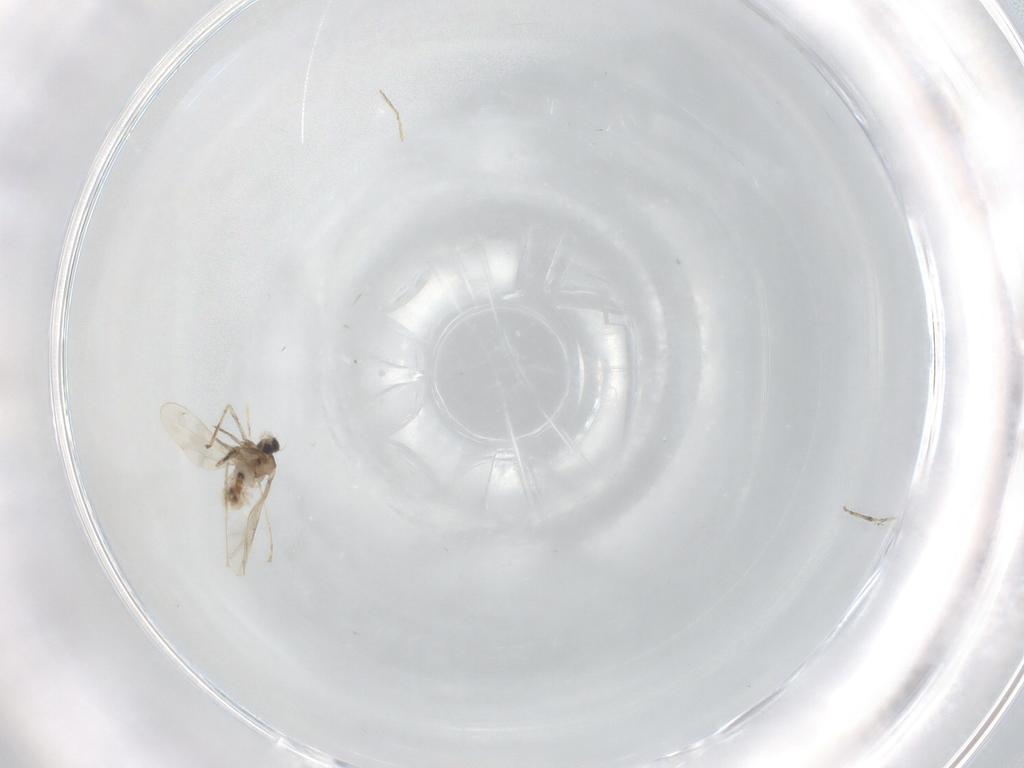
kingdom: Animalia
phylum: Arthropoda
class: Insecta
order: Diptera
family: Cecidomyiidae
